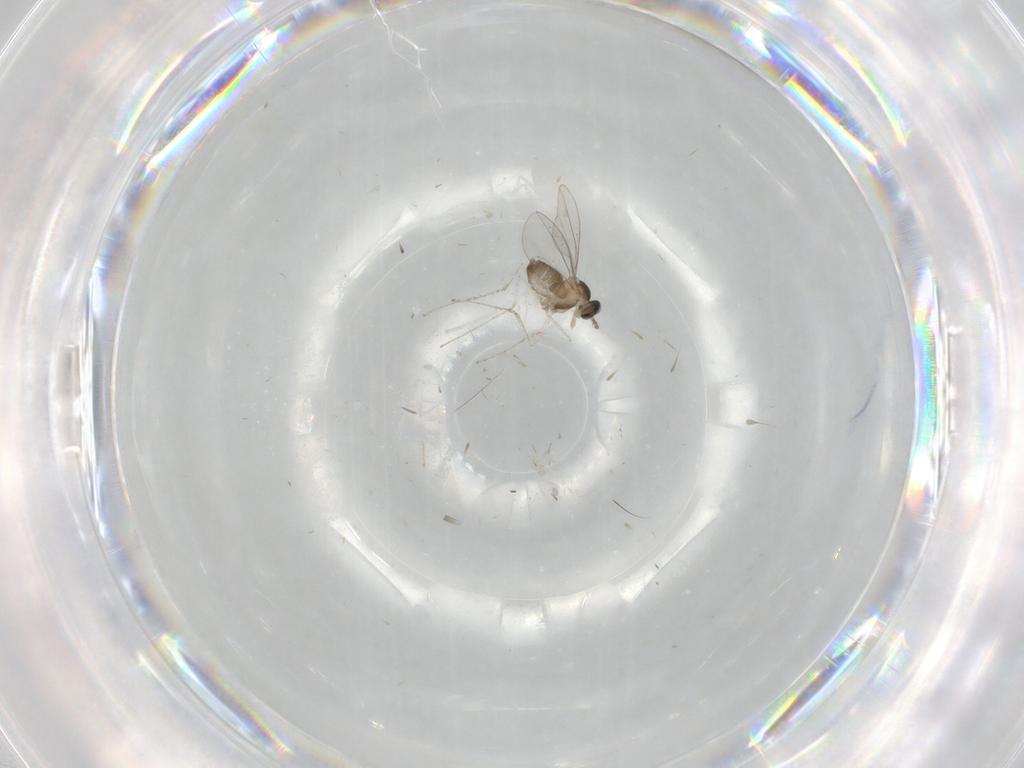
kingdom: Animalia
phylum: Arthropoda
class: Insecta
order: Diptera
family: Cecidomyiidae
